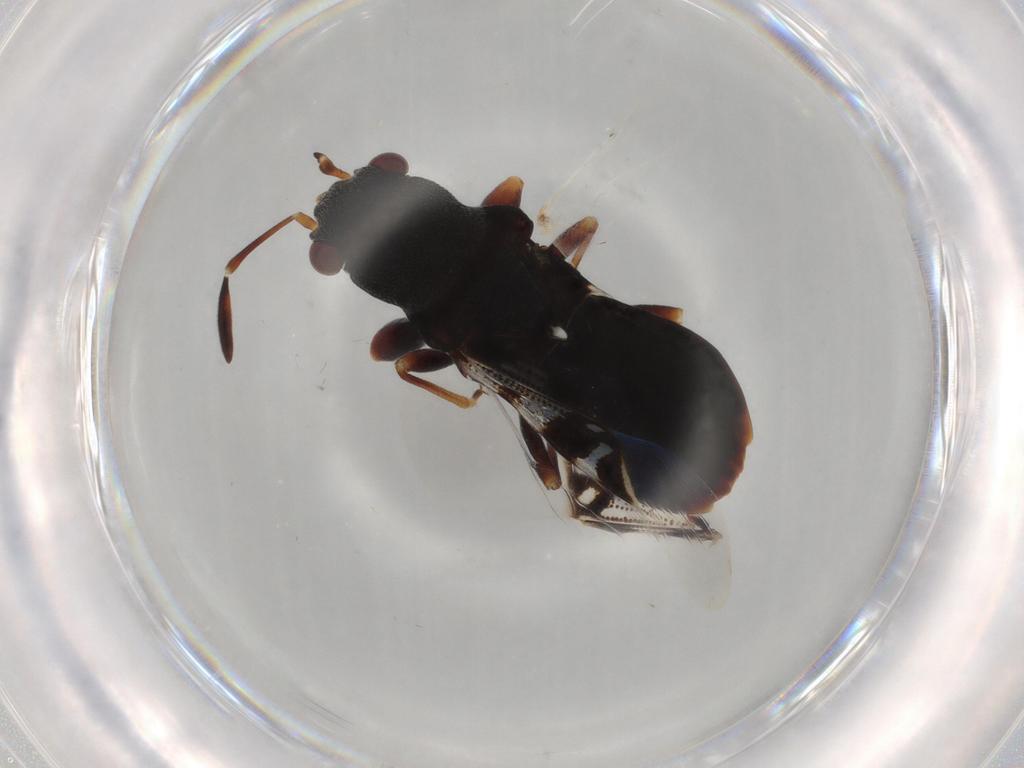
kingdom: Animalia
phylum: Arthropoda
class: Insecta
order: Hemiptera
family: Rhyparochromidae
